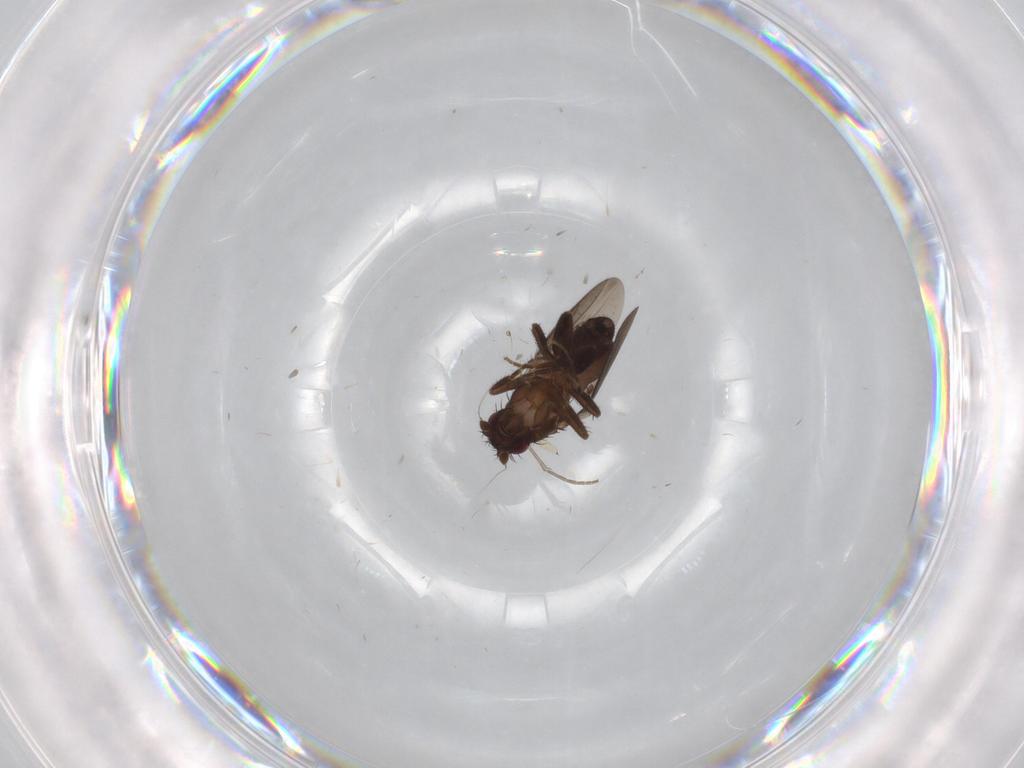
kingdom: Animalia
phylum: Arthropoda
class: Insecta
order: Diptera
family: Sphaeroceridae
